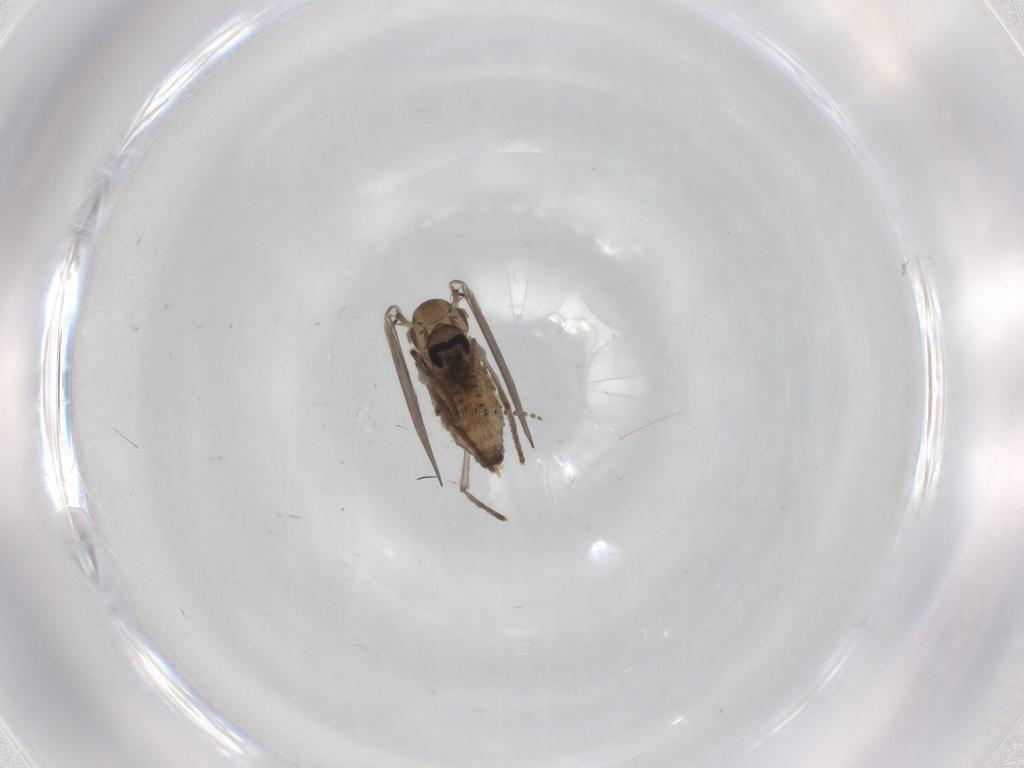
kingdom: Animalia
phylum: Arthropoda
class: Insecta
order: Diptera
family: Psychodidae
